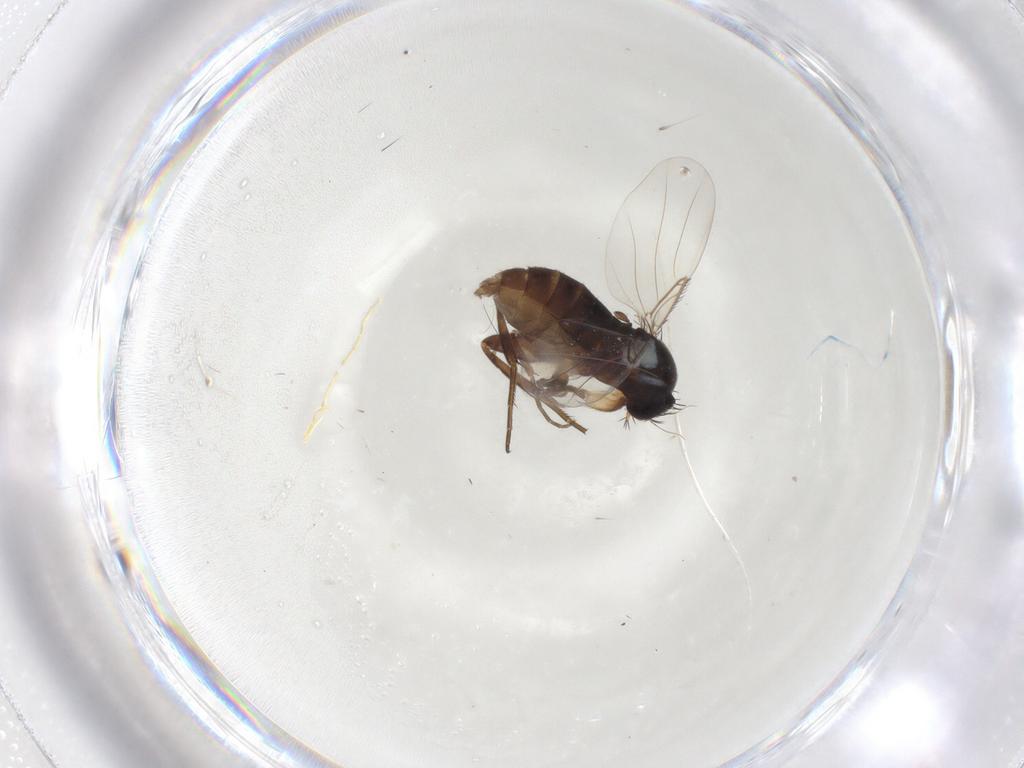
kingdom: Animalia
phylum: Arthropoda
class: Insecta
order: Diptera
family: Phoridae
